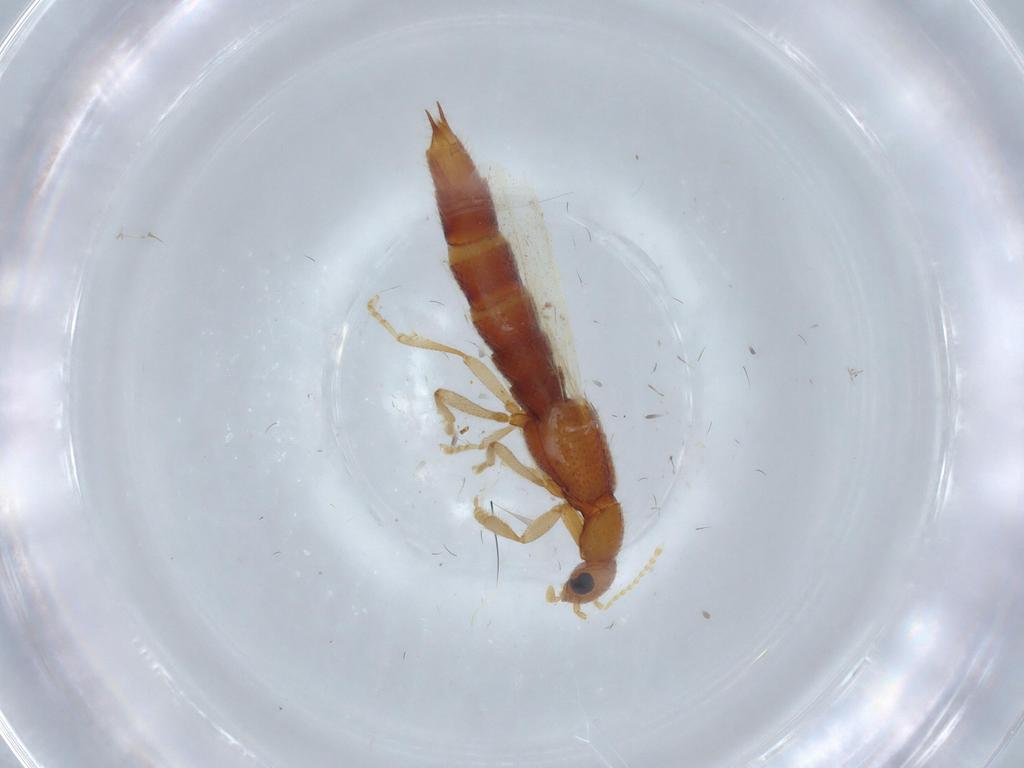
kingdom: Animalia
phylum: Arthropoda
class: Insecta
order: Coleoptera
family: Staphylinidae
